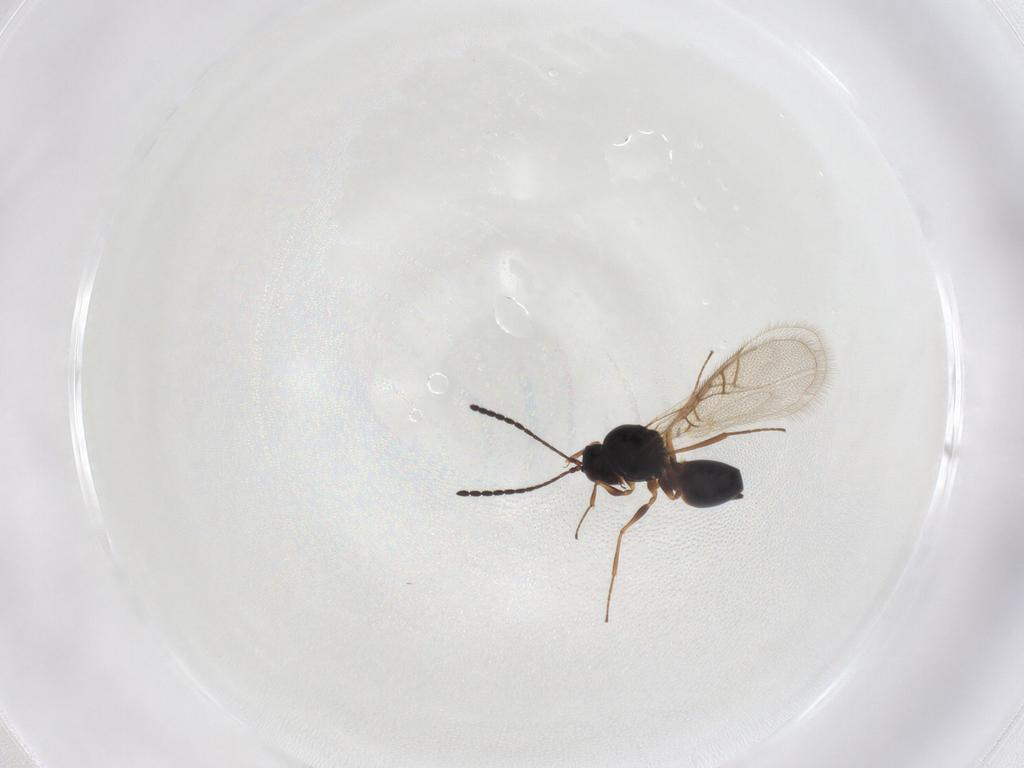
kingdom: Animalia
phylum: Arthropoda
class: Insecta
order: Hymenoptera
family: Figitidae
